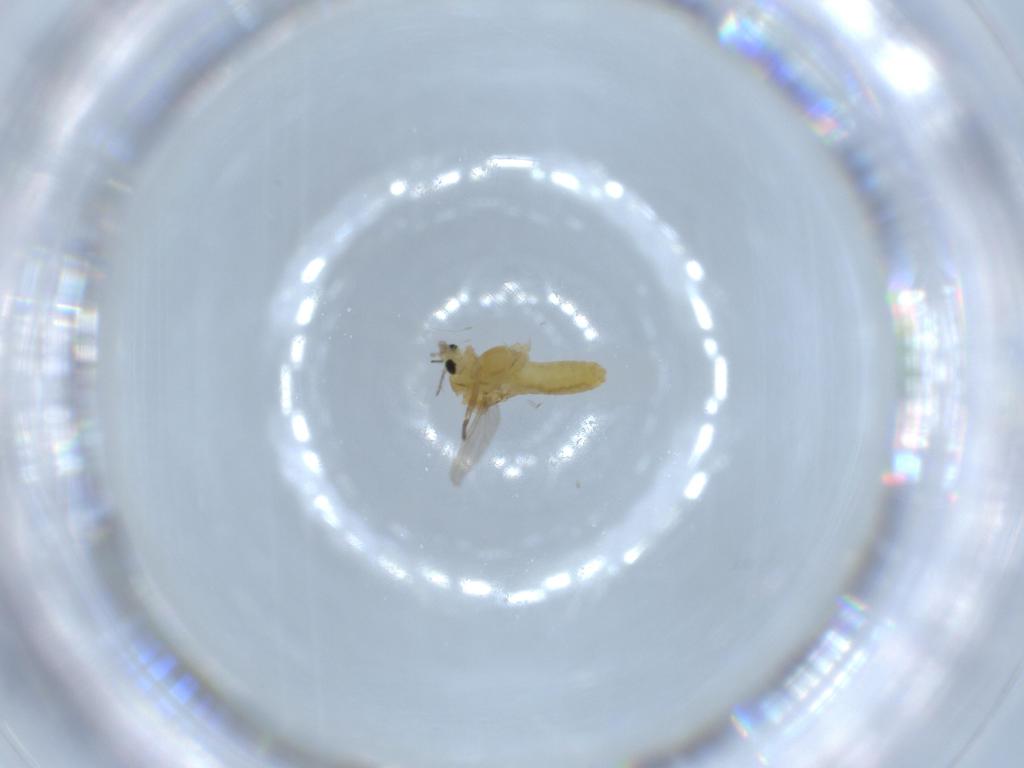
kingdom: Animalia
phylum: Arthropoda
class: Insecta
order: Diptera
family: Chironomidae
